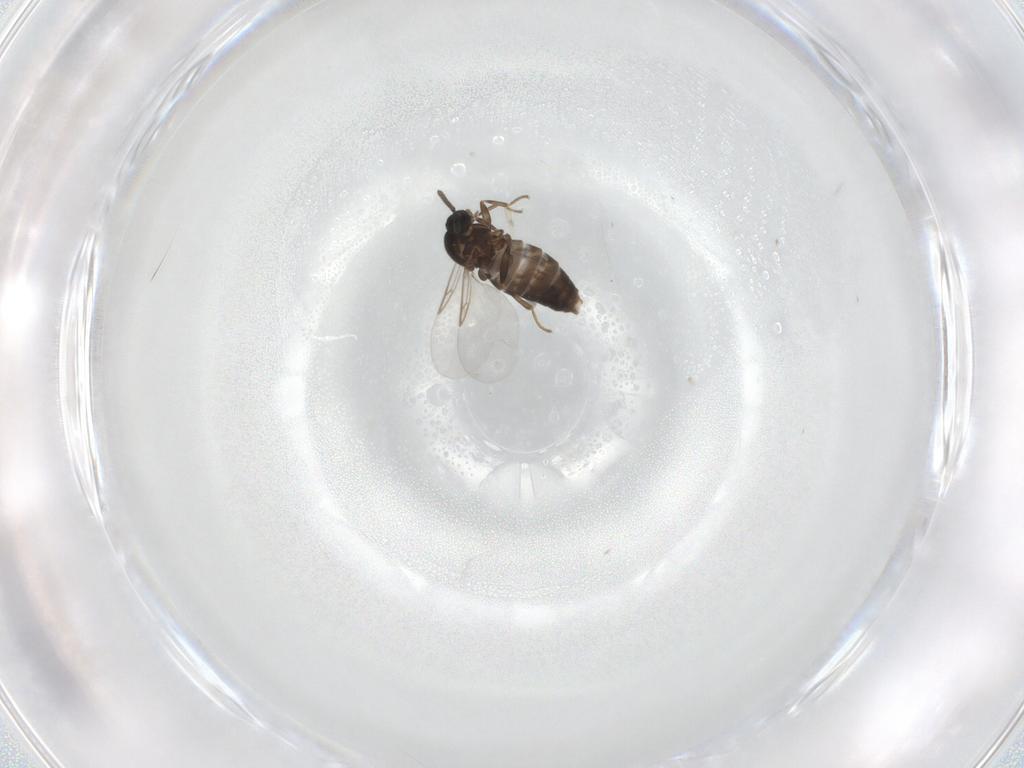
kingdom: Animalia
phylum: Arthropoda
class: Insecta
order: Diptera
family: Scatopsidae
